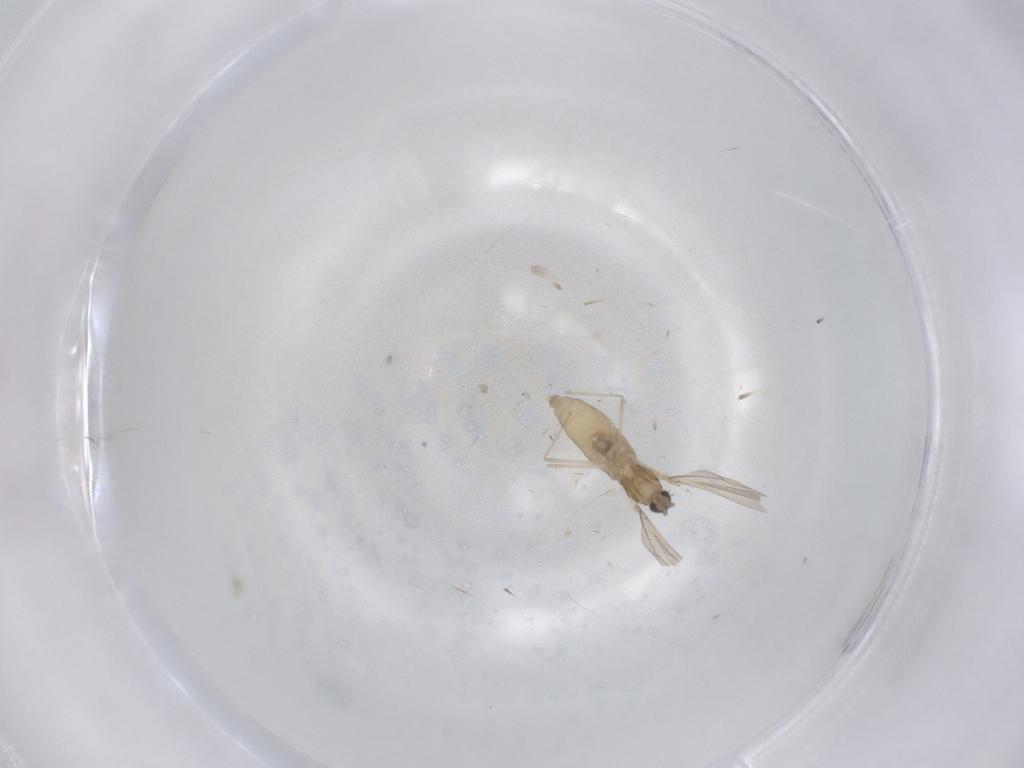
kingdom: Animalia
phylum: Arthropoda
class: Insecta
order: Diptera
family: Cecidomyiidae
